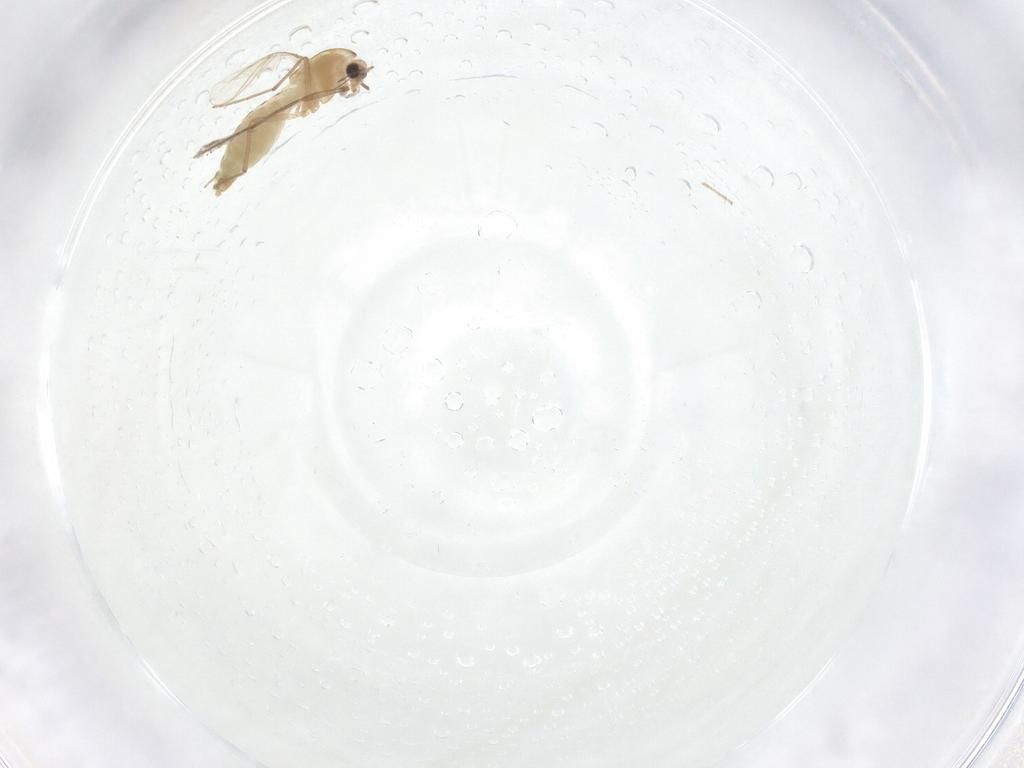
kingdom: Animalia
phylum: Arthropoda
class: Insecta
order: Diptera
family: Chironomidae
